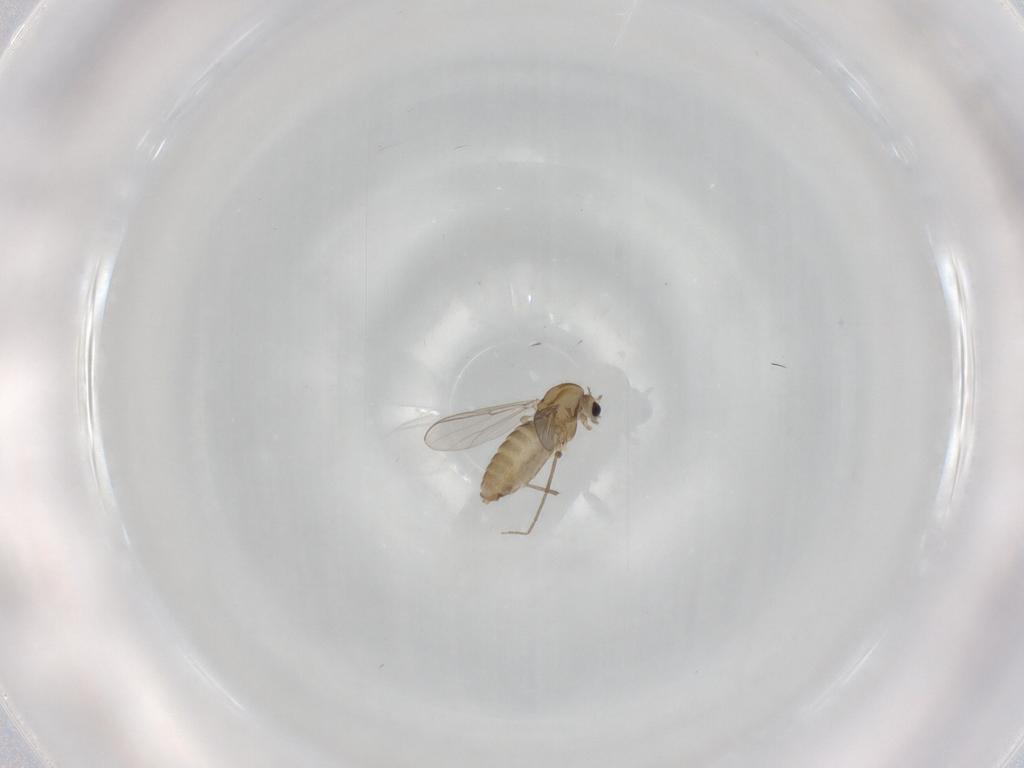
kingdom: Animalia
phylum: Arthropoda
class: Insecta
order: Diptera
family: Chironomidae
